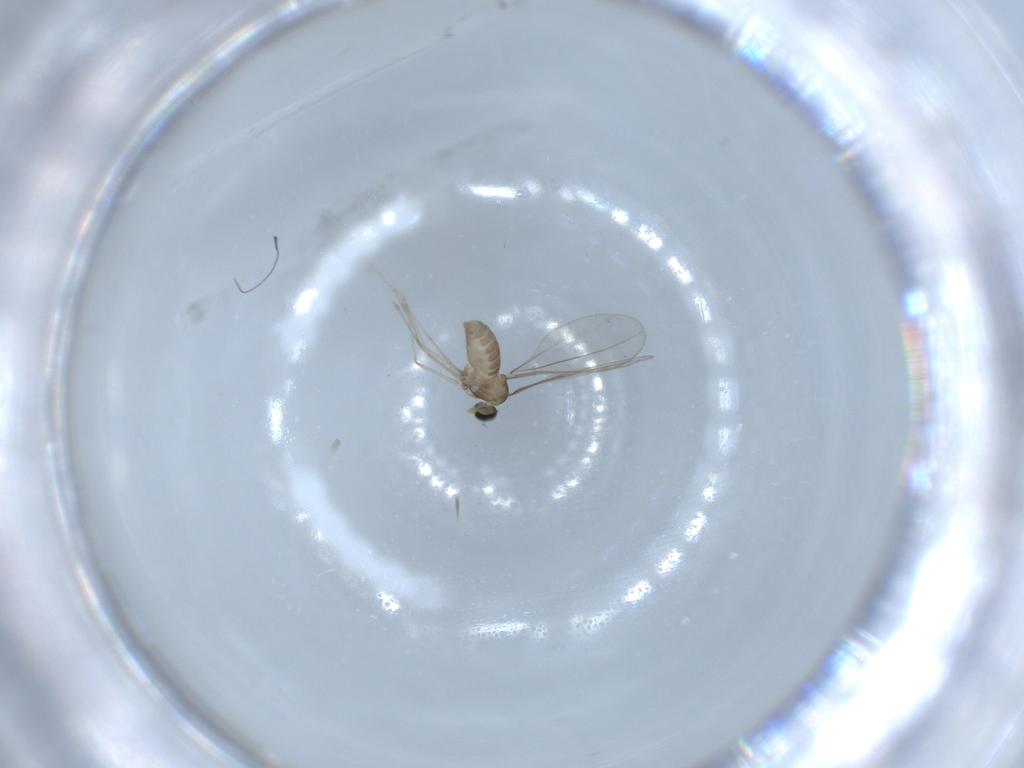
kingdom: Animalia
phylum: Arthropoda
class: Insecta
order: Diptera
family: Cecidomyiidae
